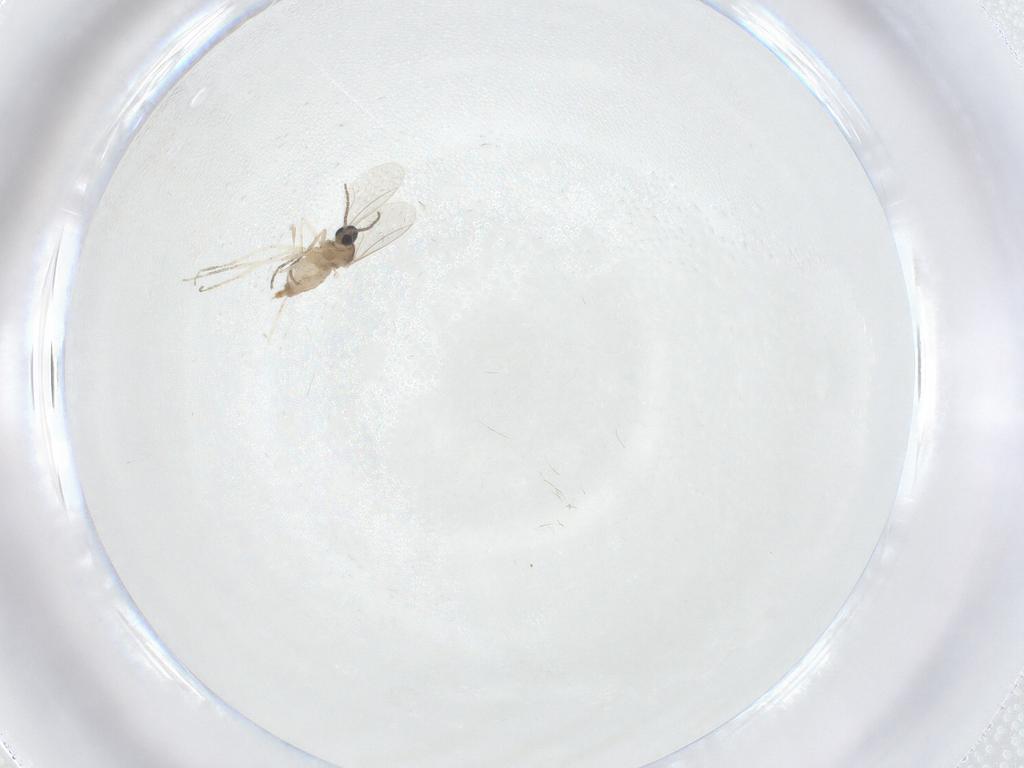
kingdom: Animalia
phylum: Arthropoda
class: Insecta
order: Diptera
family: Cecidomyiidae
